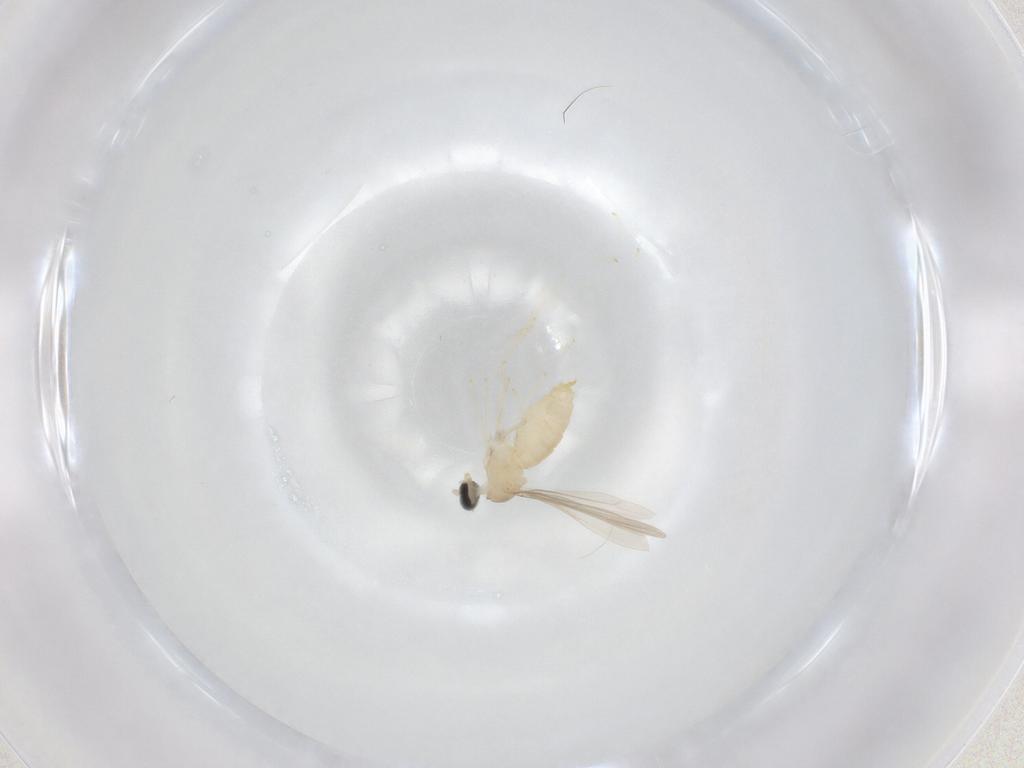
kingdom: Animalia
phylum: Arthropoda
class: Insecta
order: Diptera
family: Cecidomyiidae
